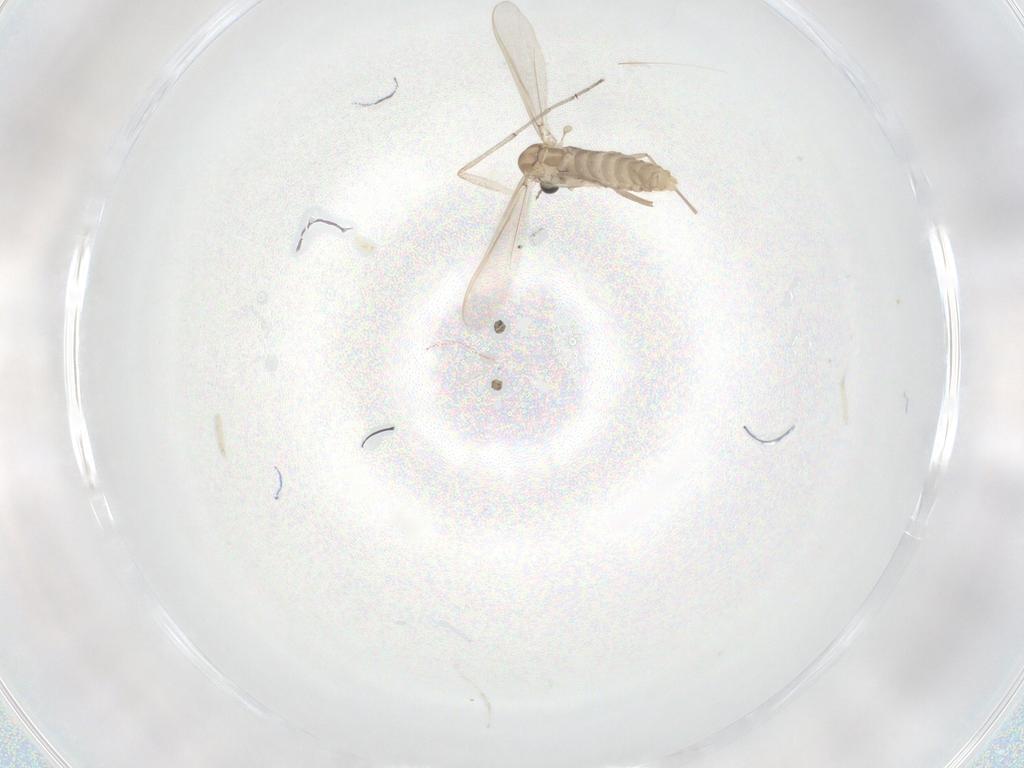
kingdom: Animalia
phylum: Arthropoda
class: Insecta
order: Diptera
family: Chironomidae
